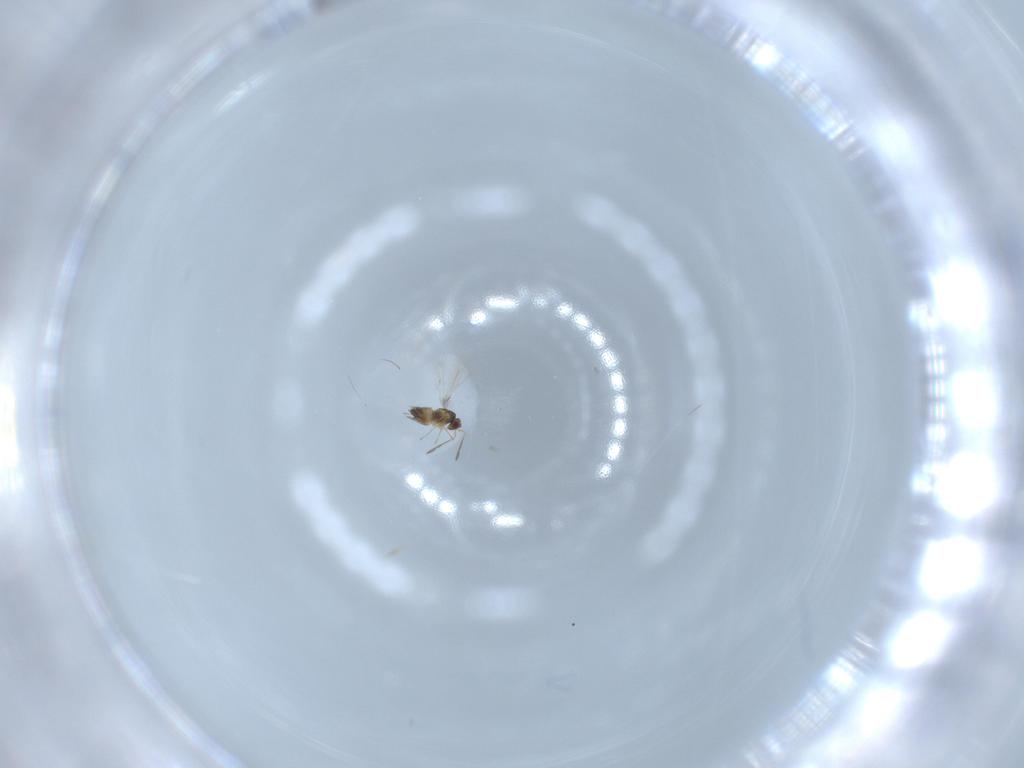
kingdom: Animalia
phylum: Arthropoda
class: Insecta
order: Hymenoptera
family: Mymaridae
